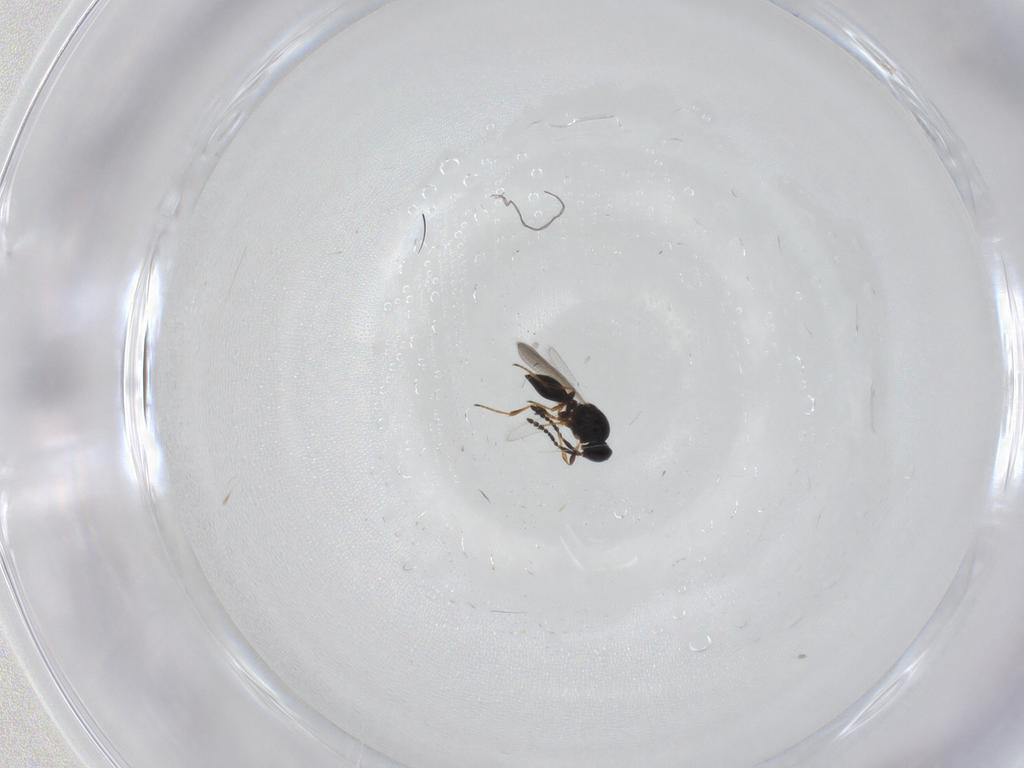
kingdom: Animalia
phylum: Arthropoda
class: Insecta
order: Hymenoptera
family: Platygastridae
